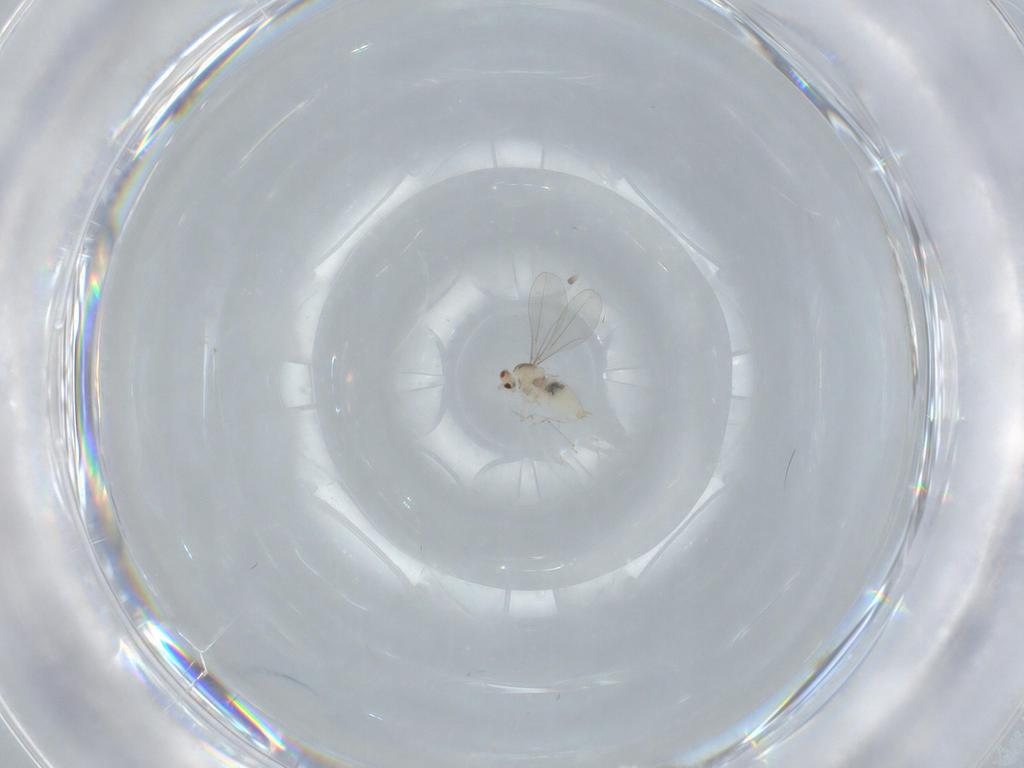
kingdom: Animalia
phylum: Arthropoda
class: Insecta
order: Diptera
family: Cecidomyiidae
